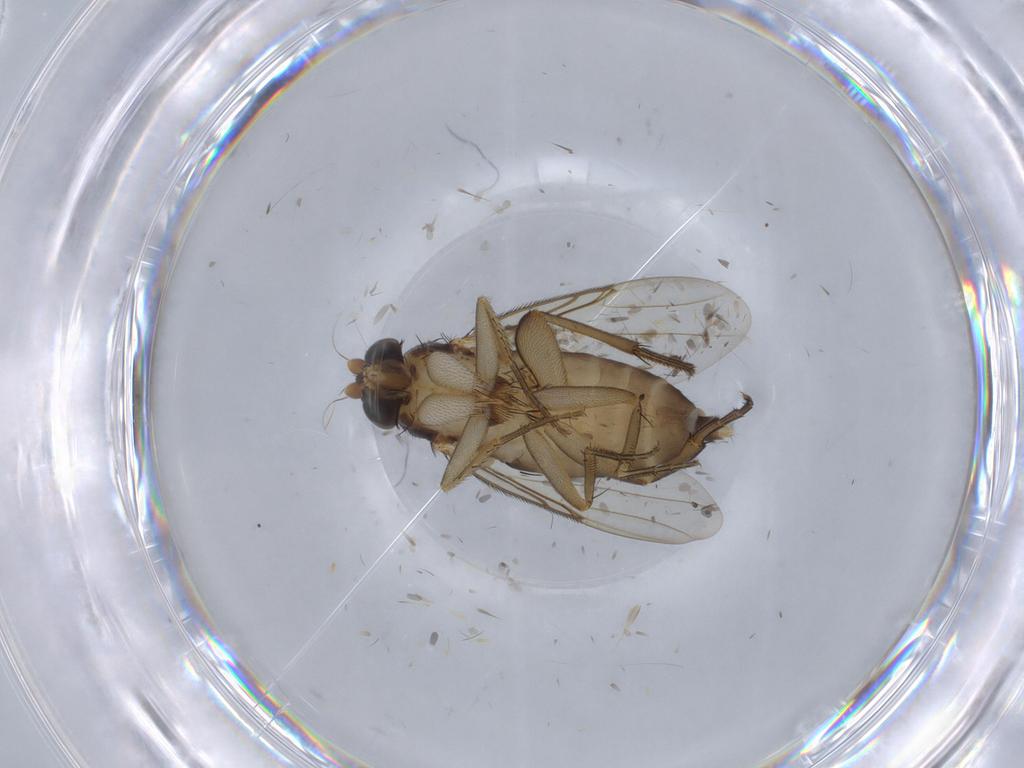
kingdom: Animalia
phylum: Arthropoda
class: Insecta
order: Diptera
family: Phoridae
